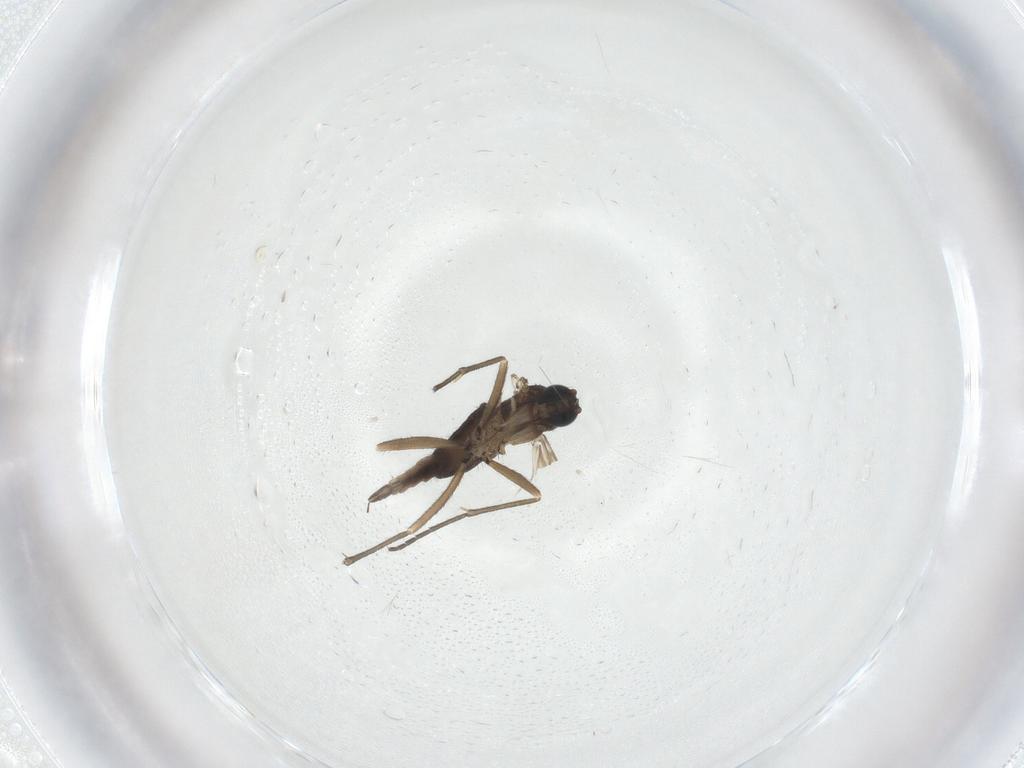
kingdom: Animalia
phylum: Arthropoda
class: Insecta
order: Diptera
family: Sciaridae
